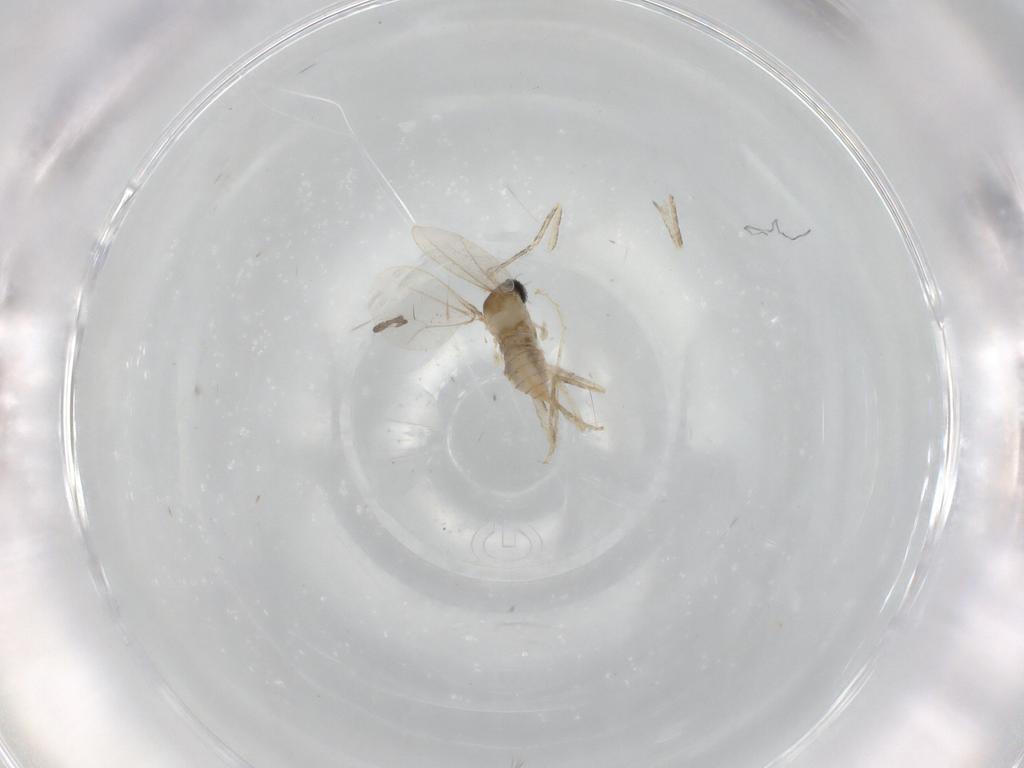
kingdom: Animalia
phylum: Arthropoda
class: Insecta
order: Diptera
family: Cecidomyiidae
